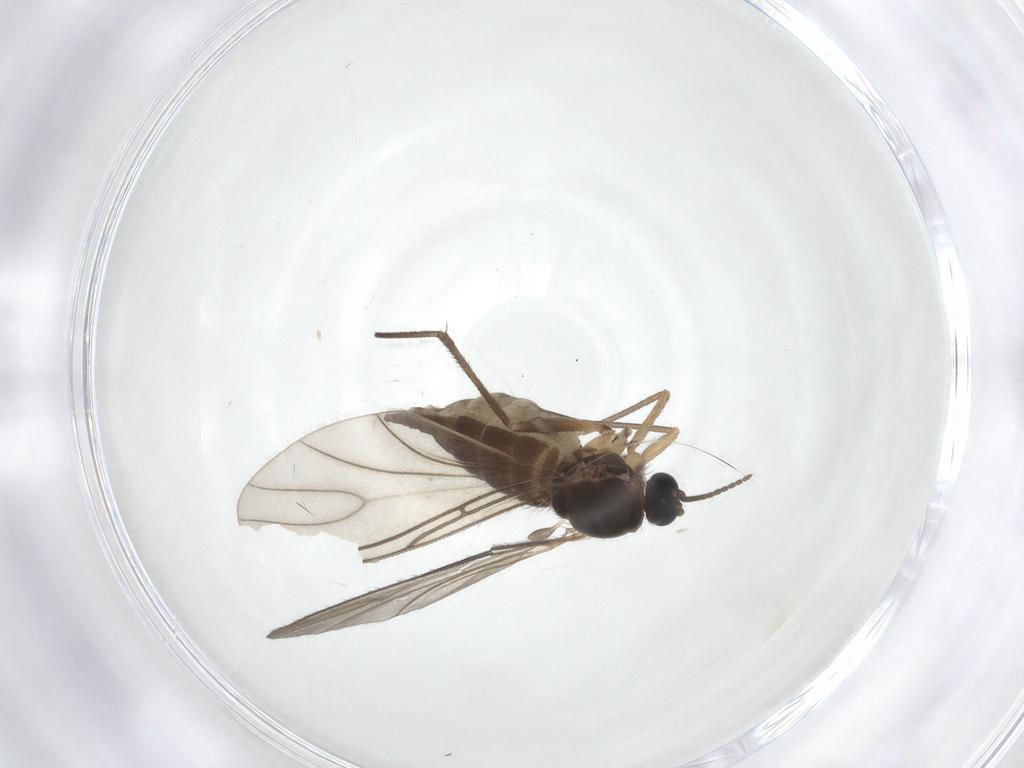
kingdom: Animalia
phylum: Arthropoda
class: Insecta
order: Diptera
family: Sciaridae
